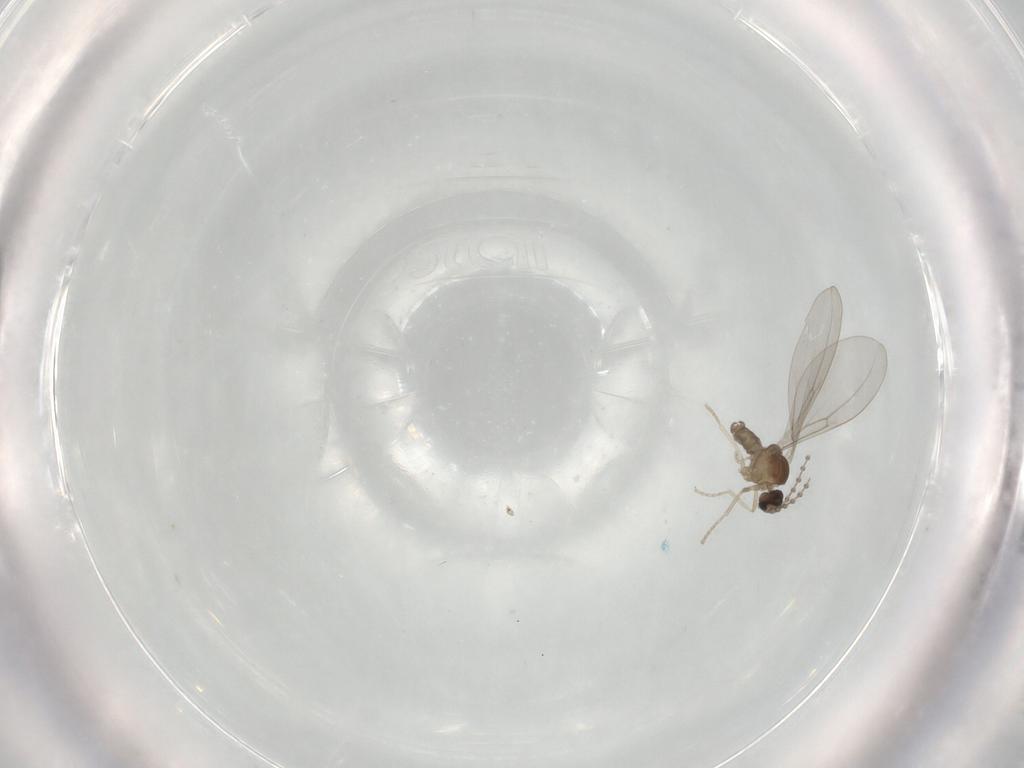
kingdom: Animalia
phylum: Arthropoda
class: Insecta
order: Diptera
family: Cecidomyiidae
